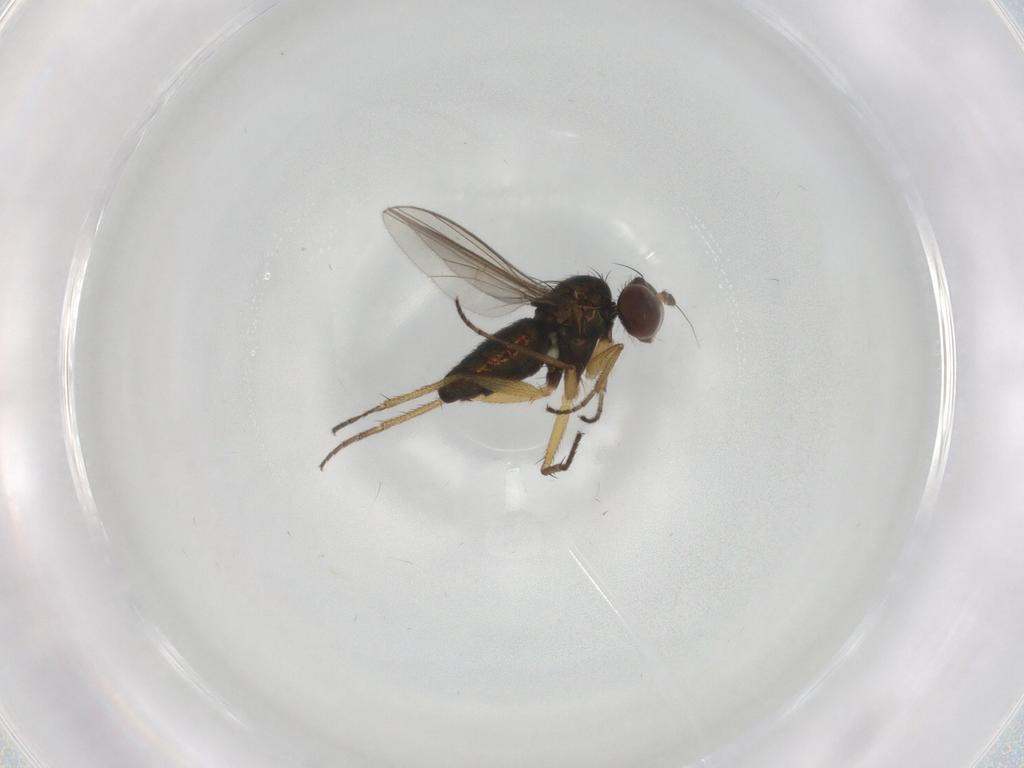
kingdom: Animalia
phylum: Arthropoda
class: Insecta
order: Diptera
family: Dolichopodidae
